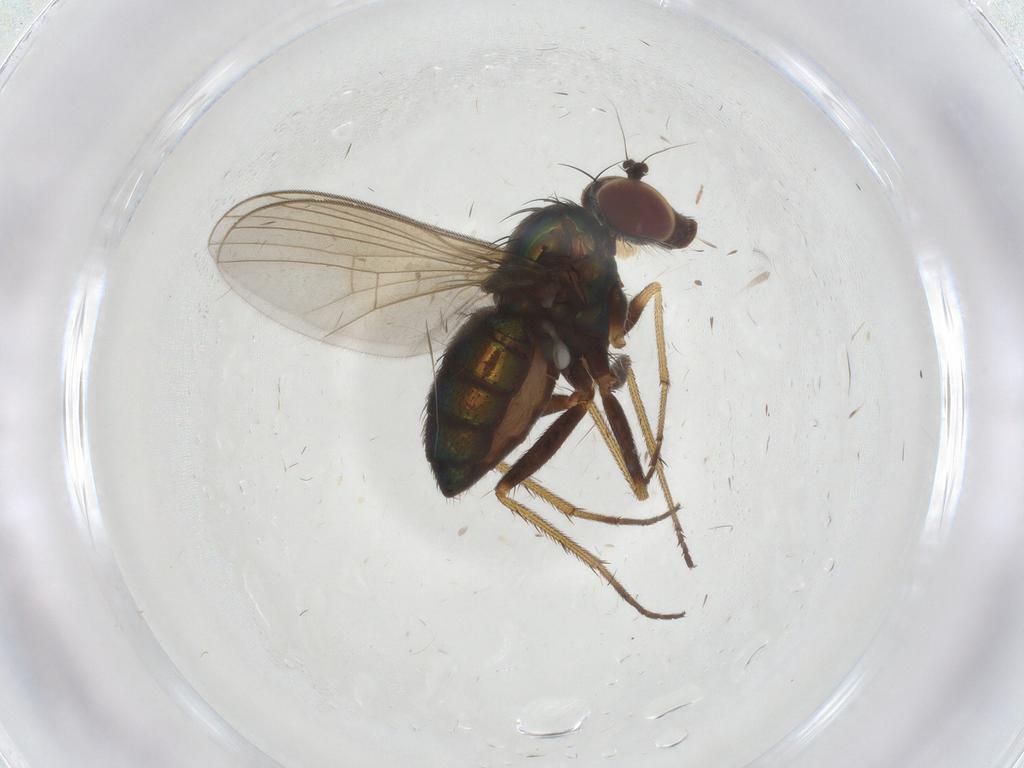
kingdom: Animalia
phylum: Arthropoda
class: Insecta
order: Diptera
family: Dolichopodidae
